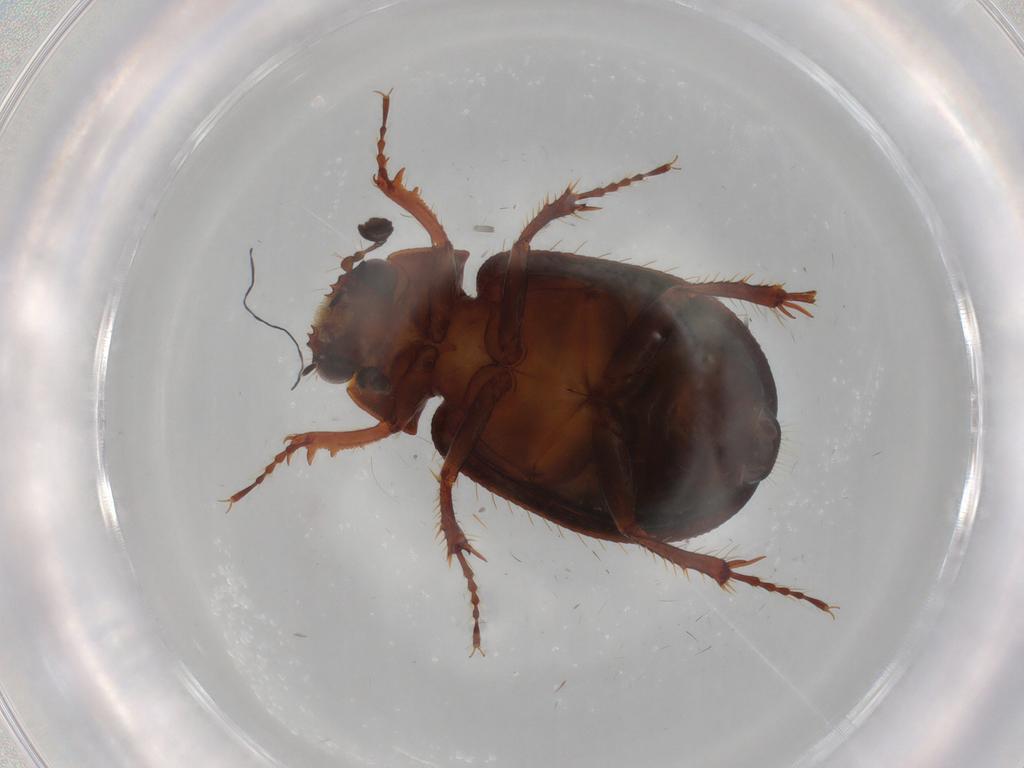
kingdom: Animalia
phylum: Arthropoda
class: Insecta
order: Coleoptera
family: Hybosoridae
